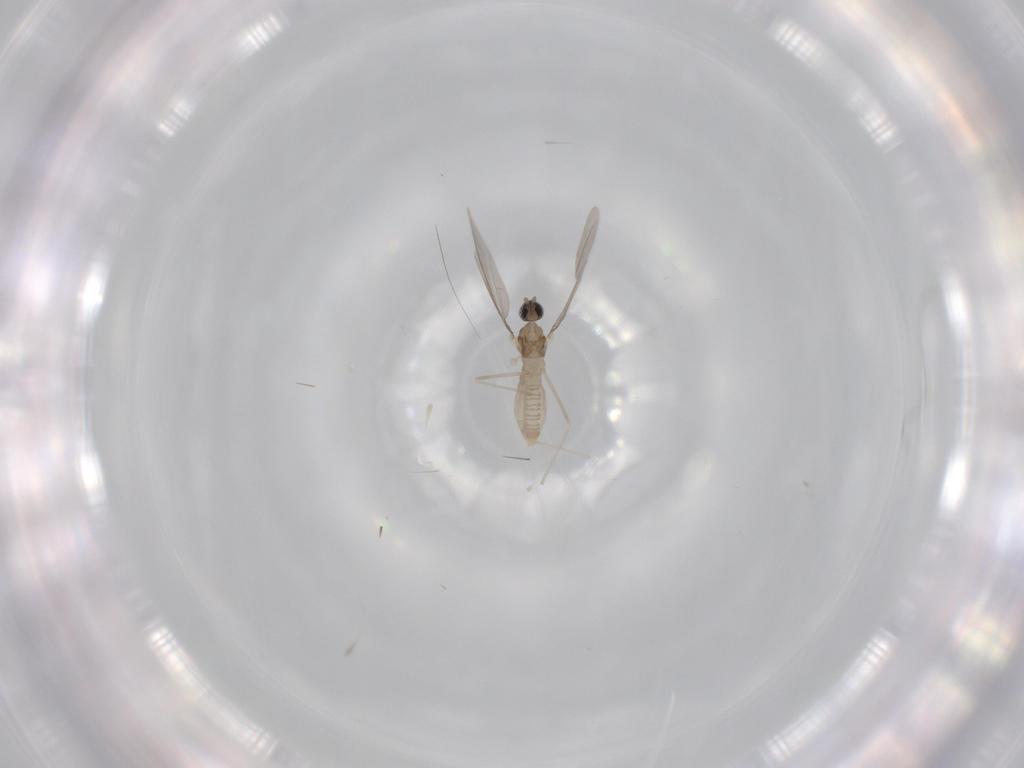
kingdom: Animalia
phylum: Arthropoda
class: Insecta
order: Diptera
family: Cecidomyiidae
